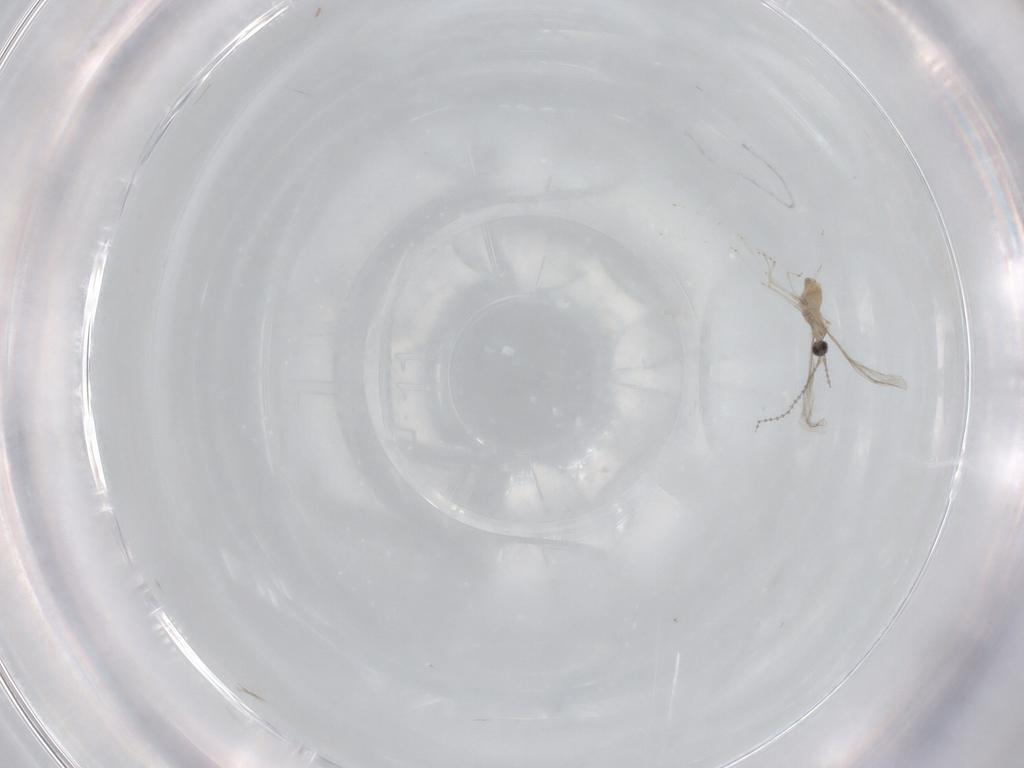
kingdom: Animalia
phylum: Arthropoda
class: Insecta
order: Diptera
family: Cecidomyiidae
